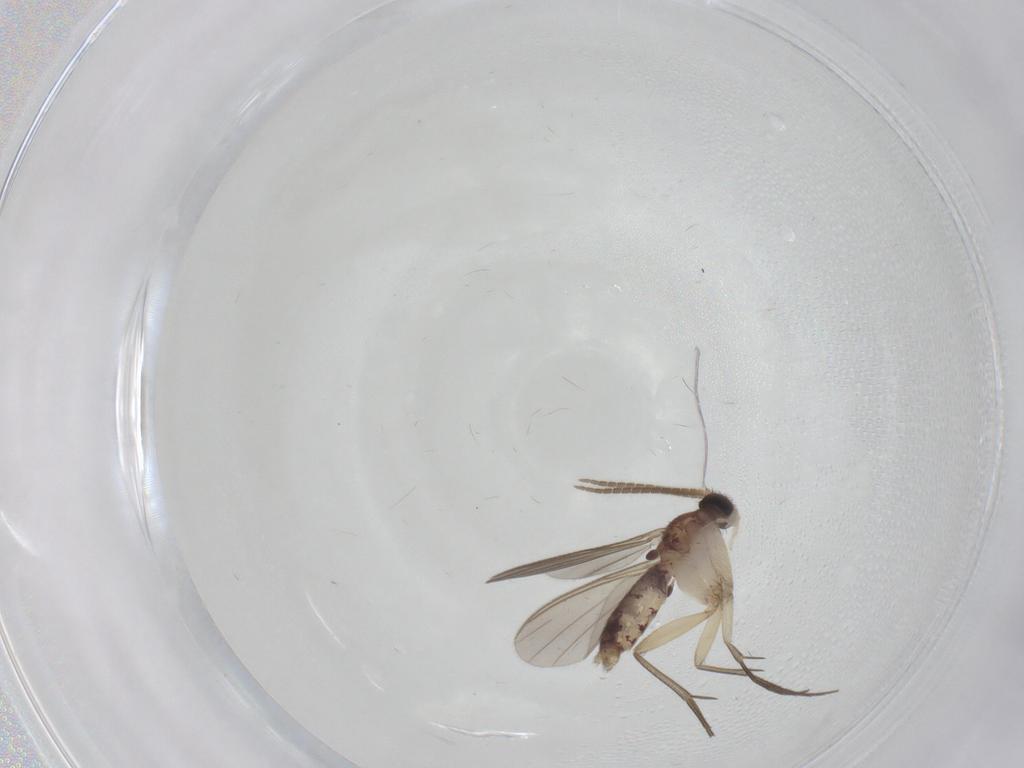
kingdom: Animalia
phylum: Arthropoda
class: Insecta
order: Diptera
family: Mycetophilidae
